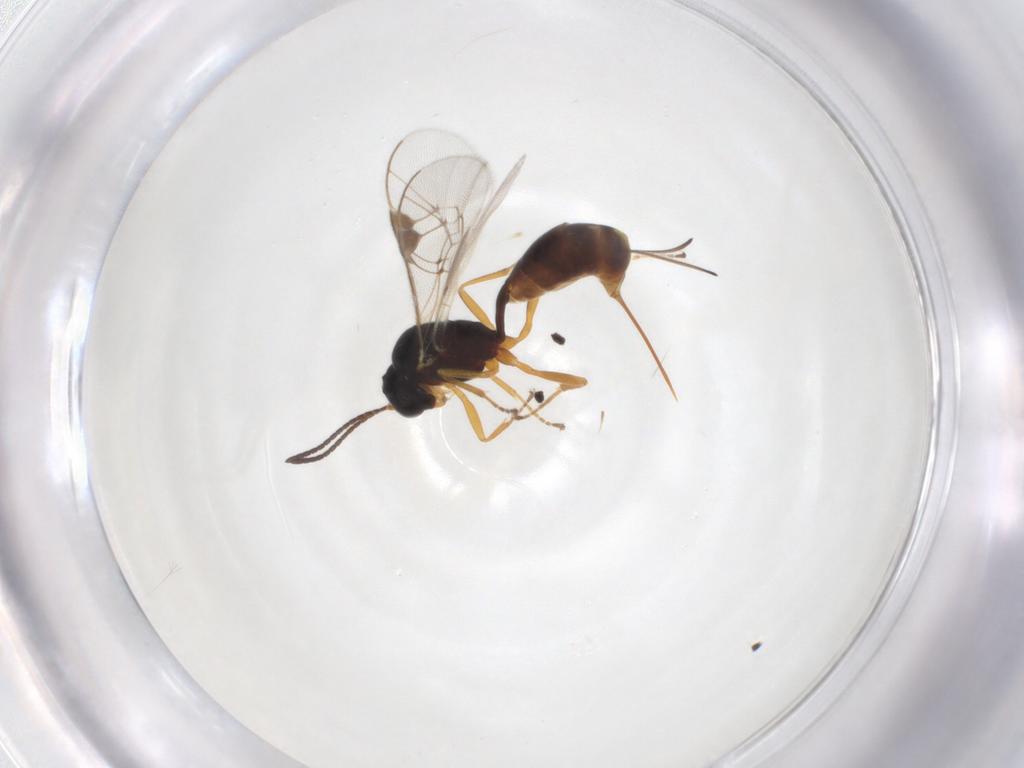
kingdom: Animalia
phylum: Arthropoda
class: Insecta
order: Hymenoptera
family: Ichneumonidae
